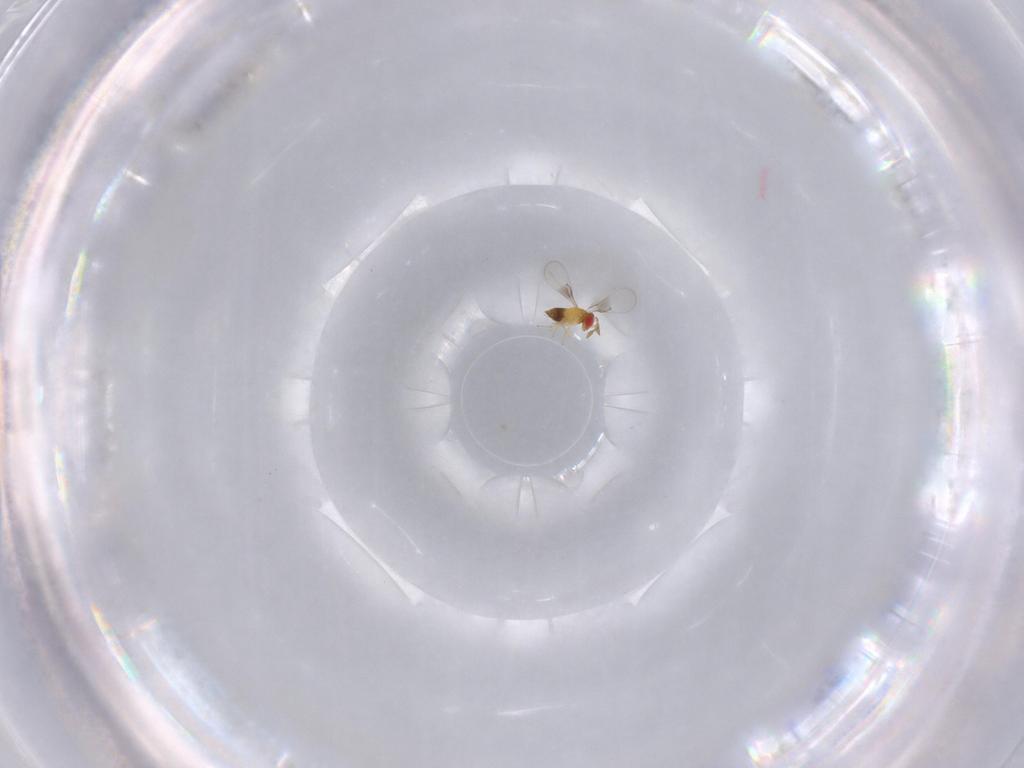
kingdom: Animalia
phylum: Arthropoda
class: Insecta
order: Hymenoptera
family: Trichogrammatidae
